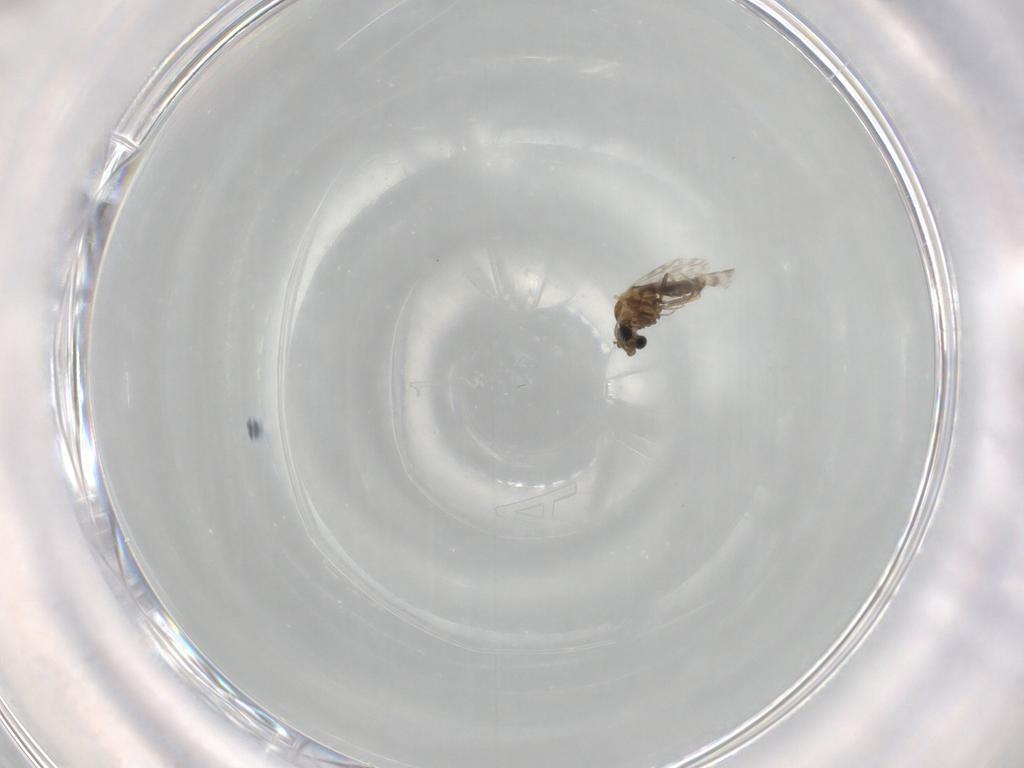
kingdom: Animalia
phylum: Arthropoda
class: Insecta
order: Diptera
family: Ceratopogonidae
